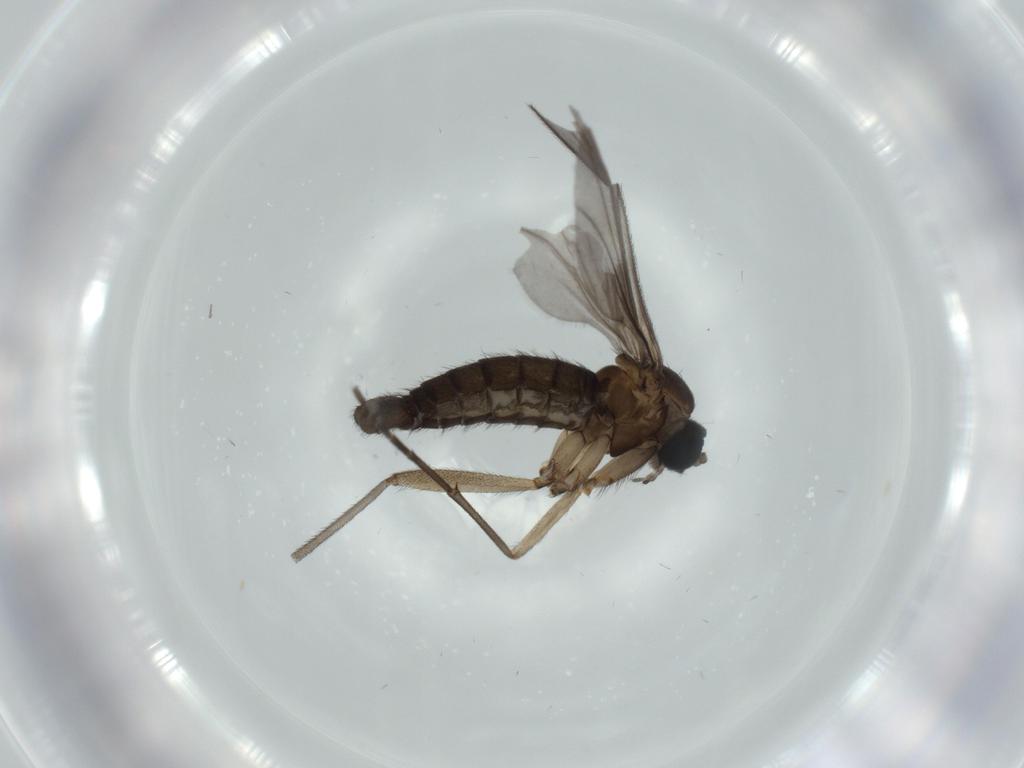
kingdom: Animalia
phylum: Arthropoda
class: Insecta
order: Diptera
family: Sciaridae
